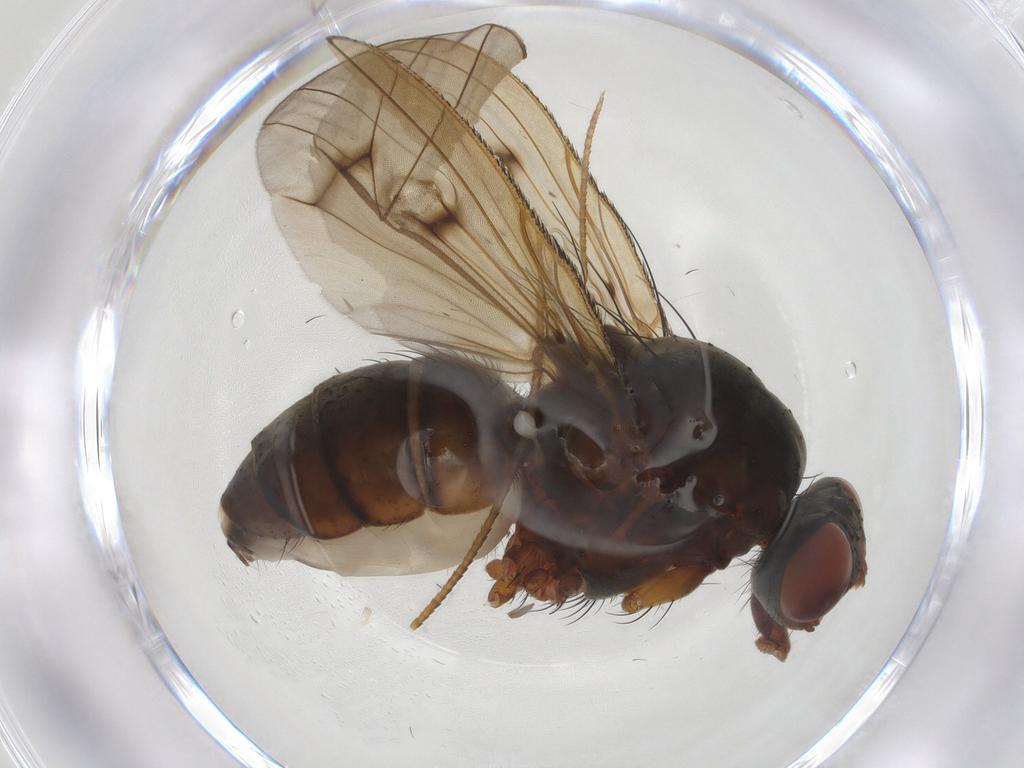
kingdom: Animalia
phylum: Arthropoda
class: Insecta
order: Diptera
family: Anthomyiidae
